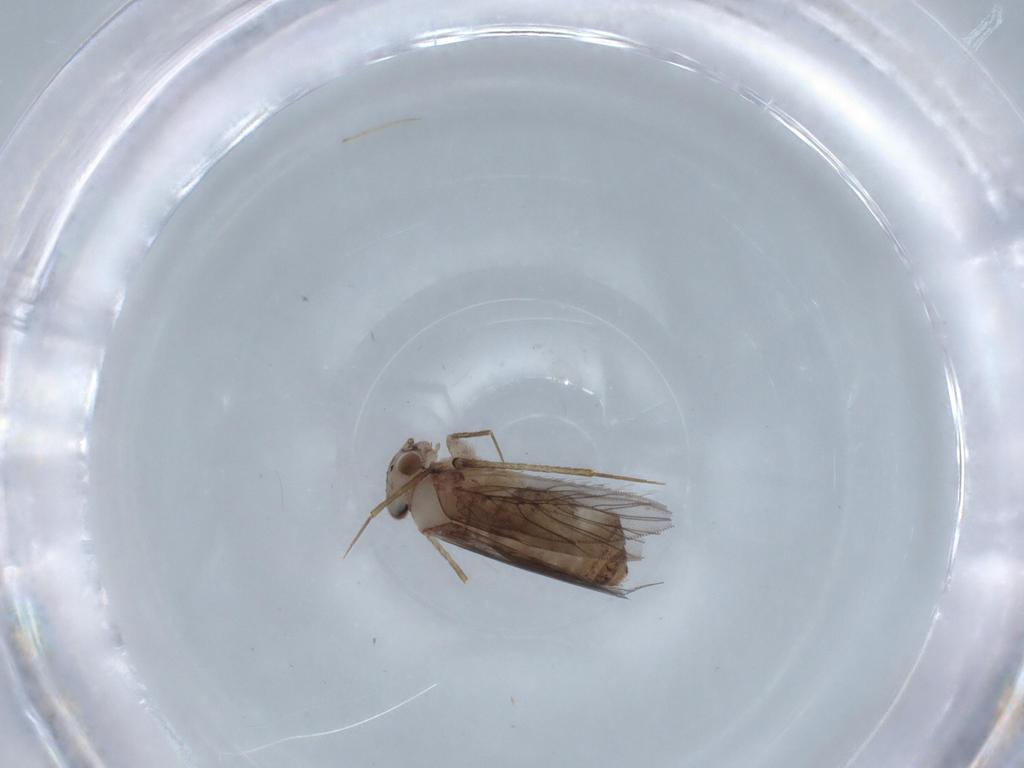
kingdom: Animalia
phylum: Arthropoda
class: Insecta
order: Psocodea
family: Lepidopsocidae
